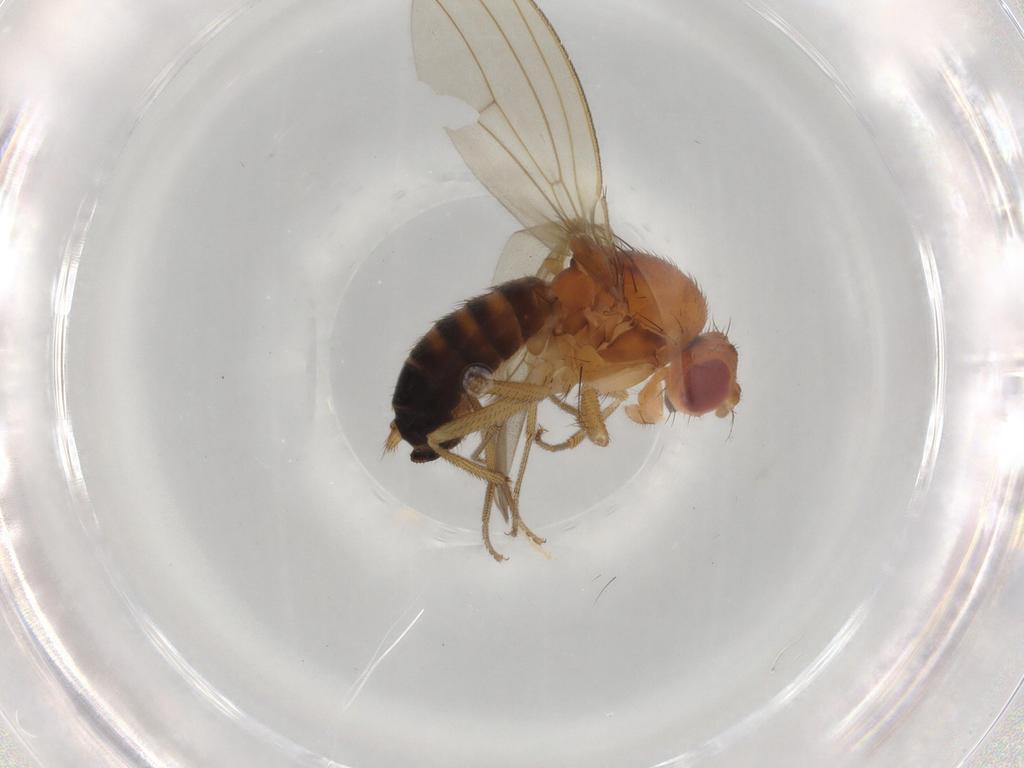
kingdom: Animalia
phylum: Arthropoda
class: Insecta
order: Diptera
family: Drosophilidae
